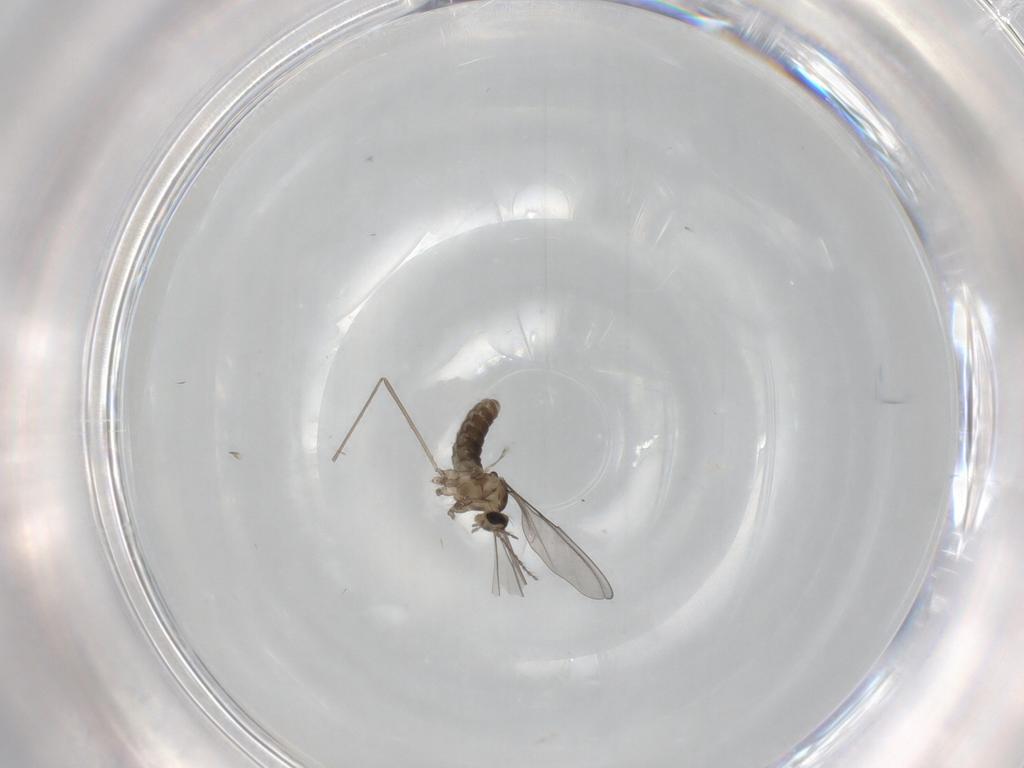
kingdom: Animalia
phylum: Arthropoda
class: Insecta
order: Diptera
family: Cecidomyiidae
